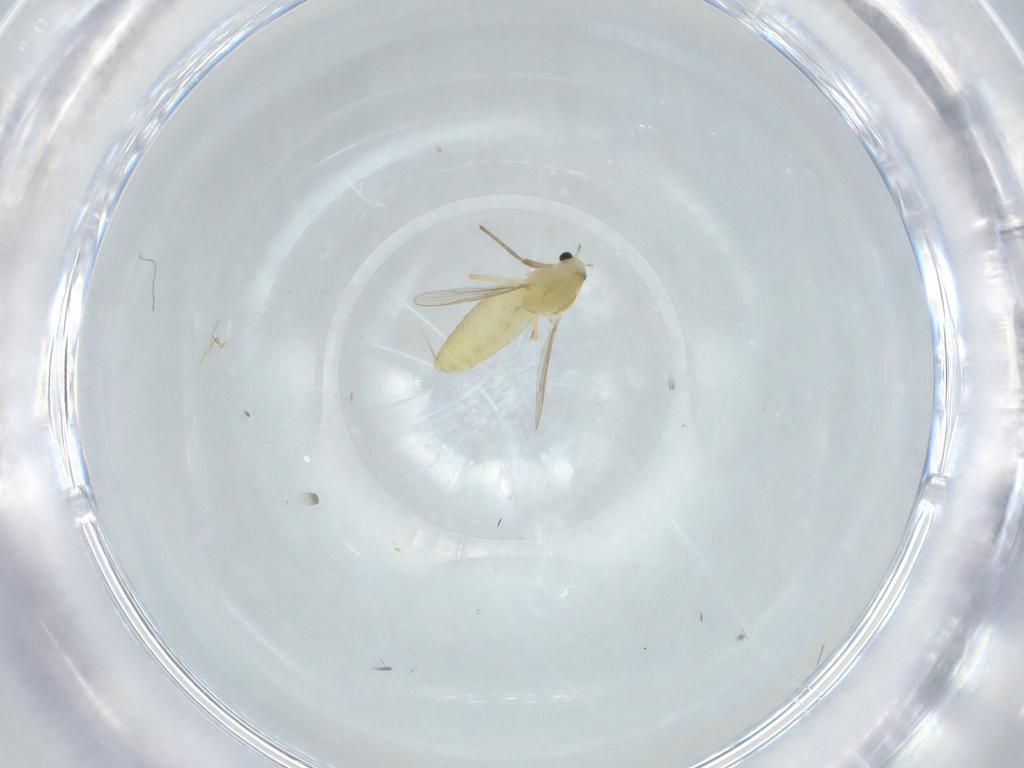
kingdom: Animalia
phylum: Arthropoda
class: Insecta
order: Diptera
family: Chironomidae
